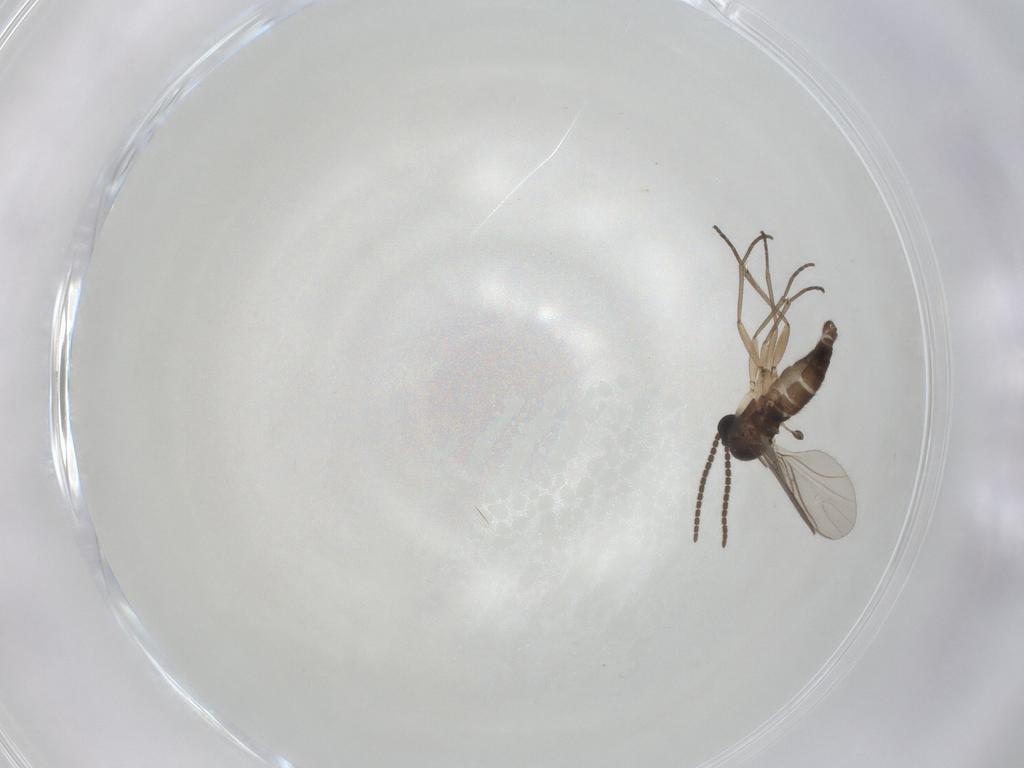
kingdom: Animalia
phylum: Arthropoda
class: Insecta
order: Diptera
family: Sciaridae
